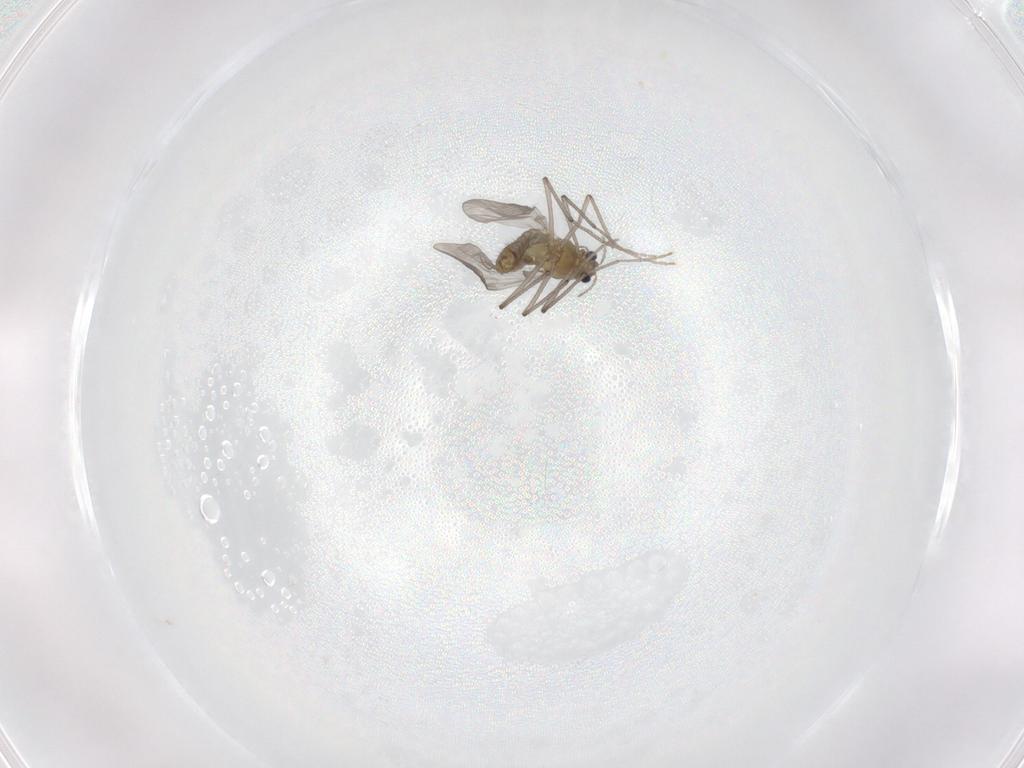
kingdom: Animalia
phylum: Arthropoda
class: Insecta
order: Diptera
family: Chironomidae
